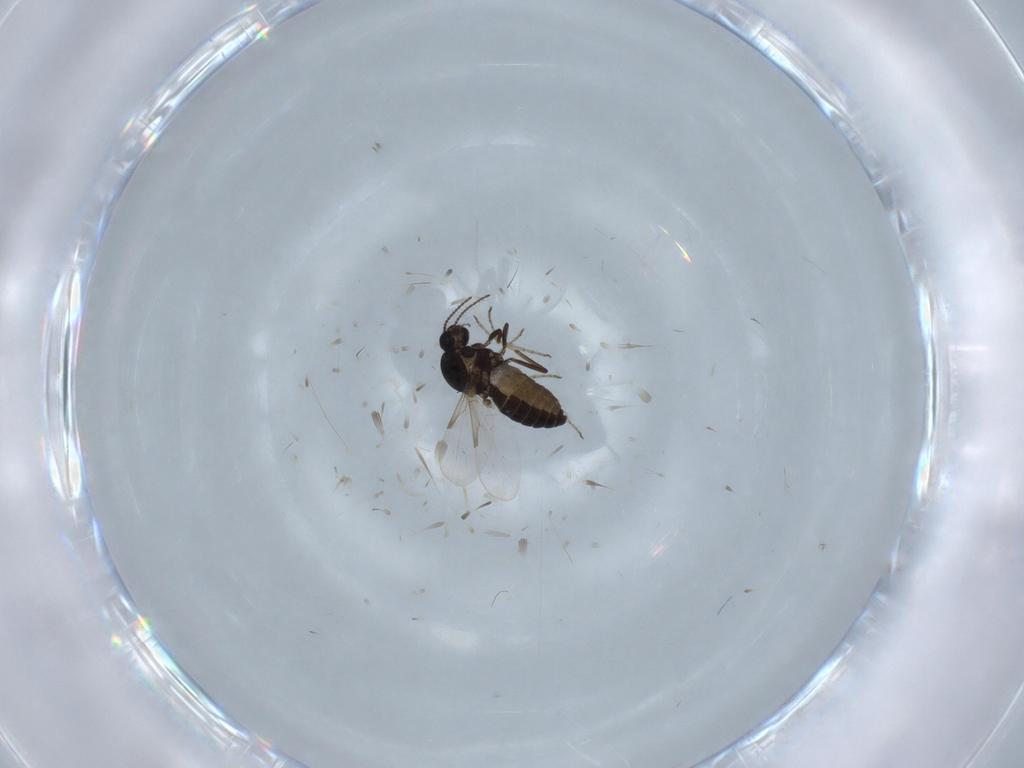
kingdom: Animalia
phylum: Arthropoda
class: Insecta
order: Diptera
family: Ceratopogonidae
